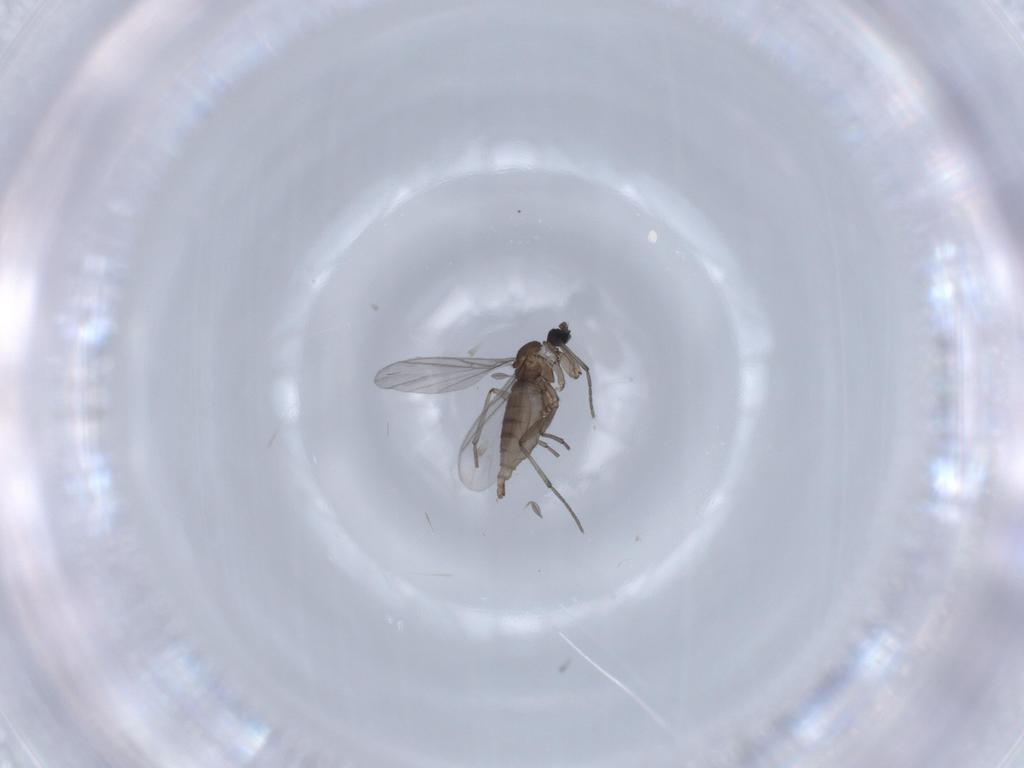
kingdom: Animalia
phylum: Arthropoda
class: Insecta
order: Diptera
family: Sciaridae
